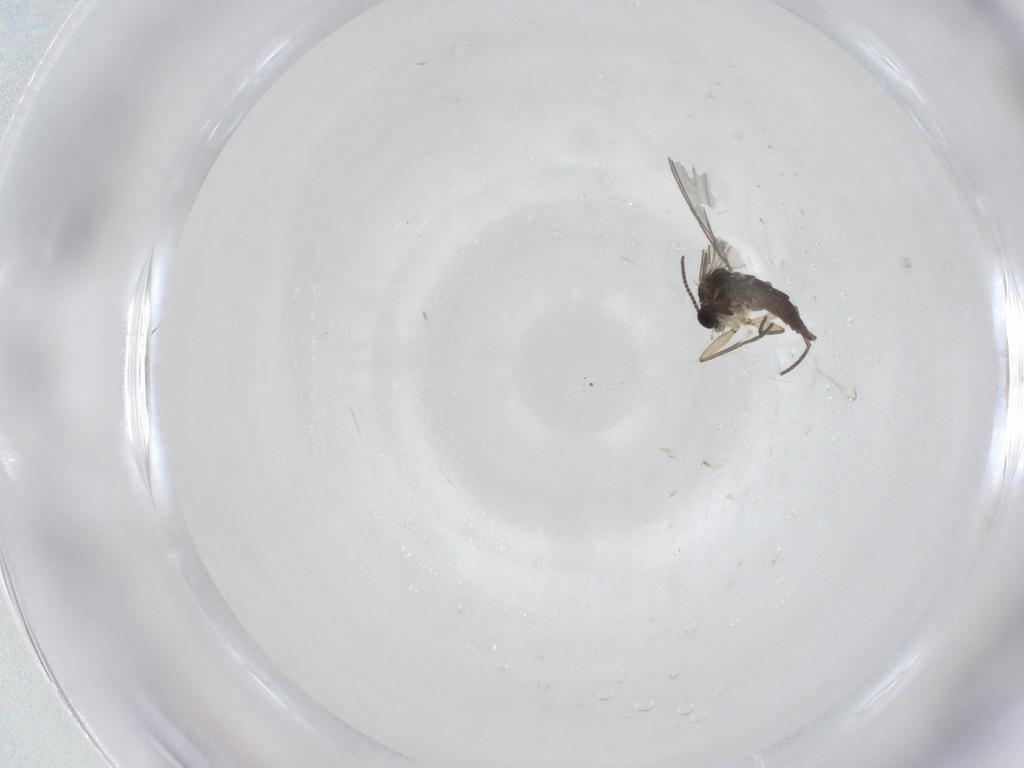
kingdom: Animalia
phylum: Arthropoda
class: Insecta
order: Diptera
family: Sciaridae
